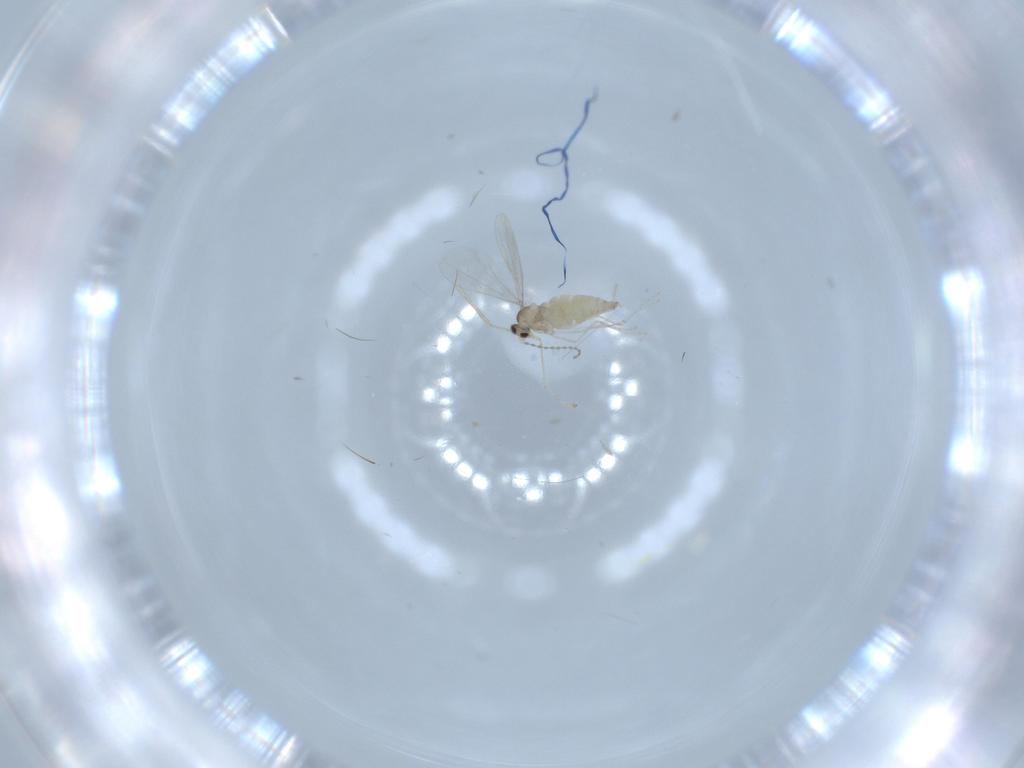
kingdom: Animalia
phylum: Arthropoda
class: Insecta
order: Diptera
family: Cecidomyiidae
